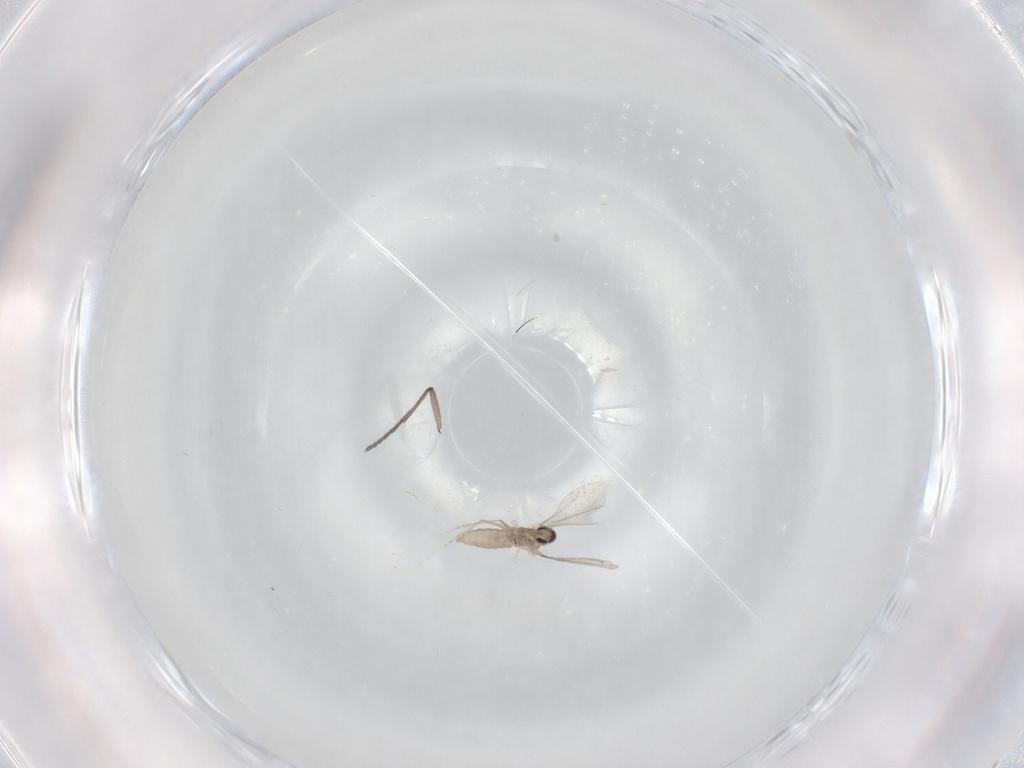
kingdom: Animalia
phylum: Arthropoda
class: Insecta
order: Diptera
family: Cecidomyiidae
